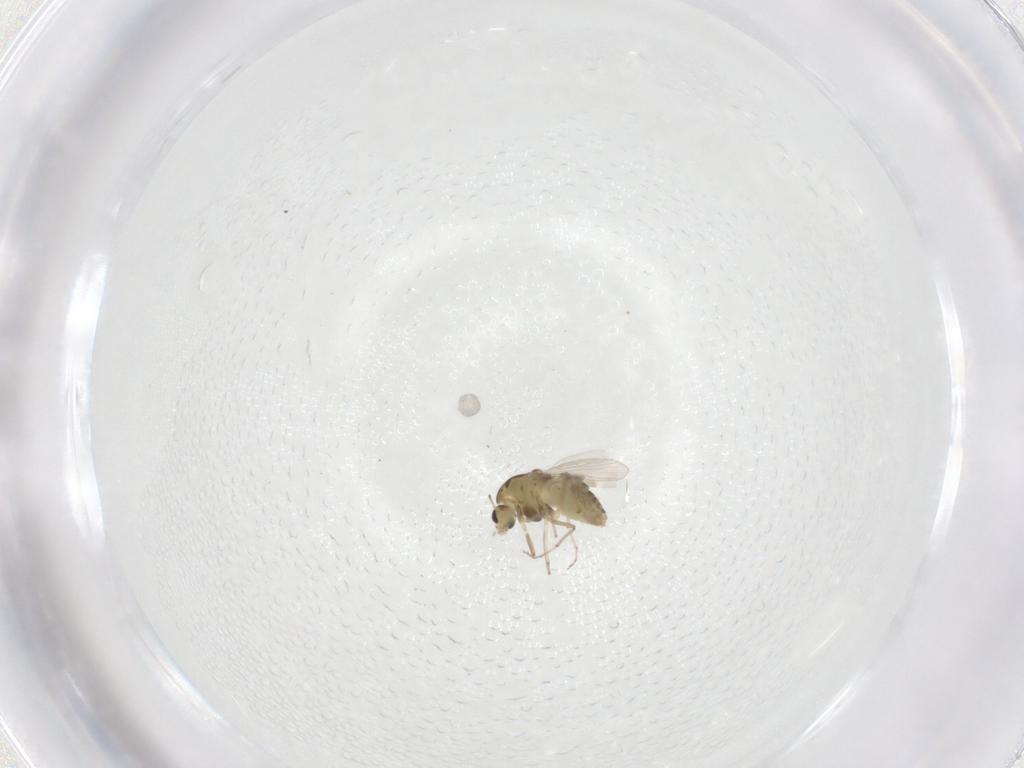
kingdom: Animalia
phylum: Arthropoda
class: Insecta
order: Diptera
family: Chironomidae
